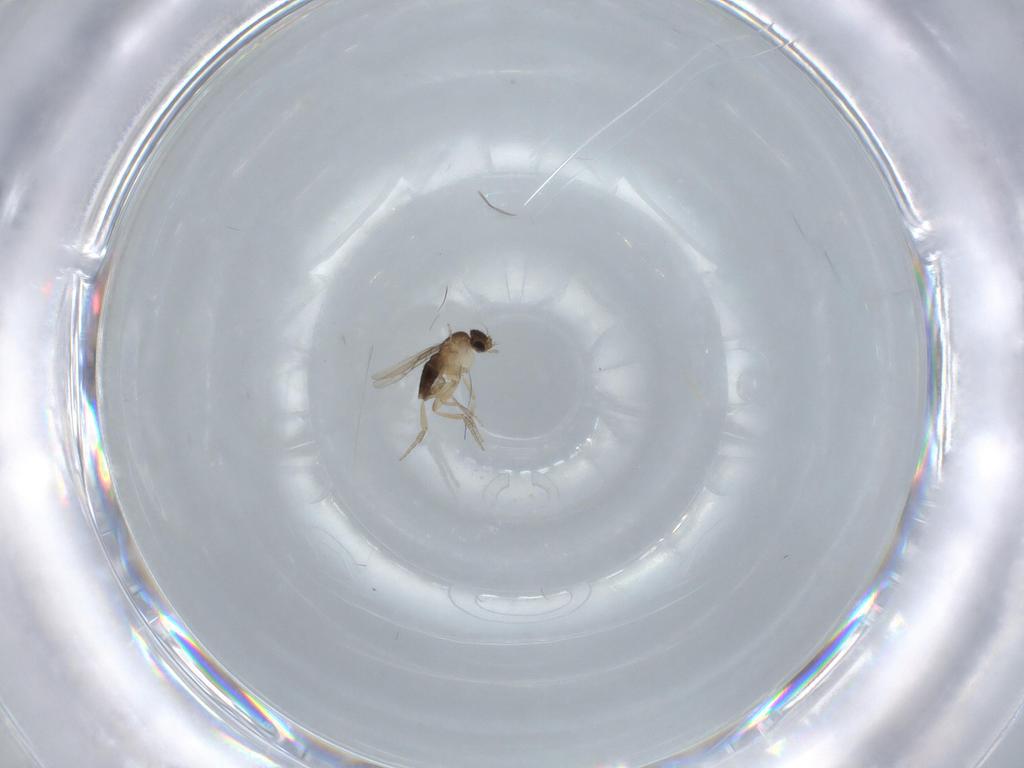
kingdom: Animalia
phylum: Arthropoda
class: Insecta
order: Diptera
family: Phoridae
